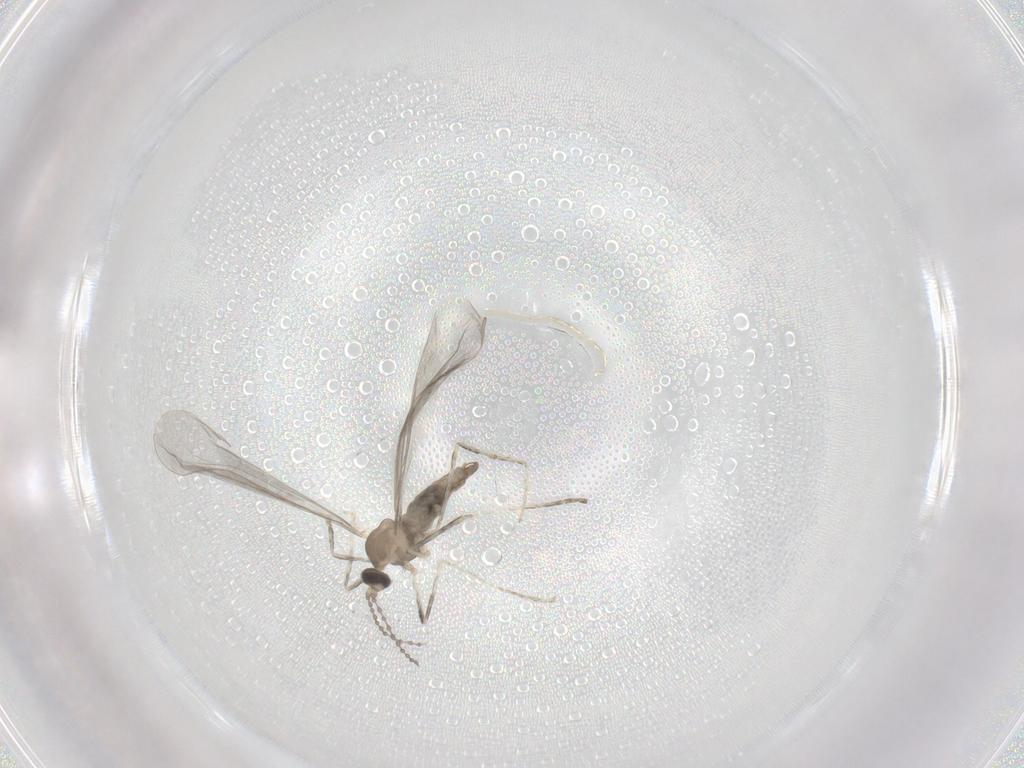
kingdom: Animalia
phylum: Arthropoda
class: Insecta
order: Diptera
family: Cecidomyiidae
